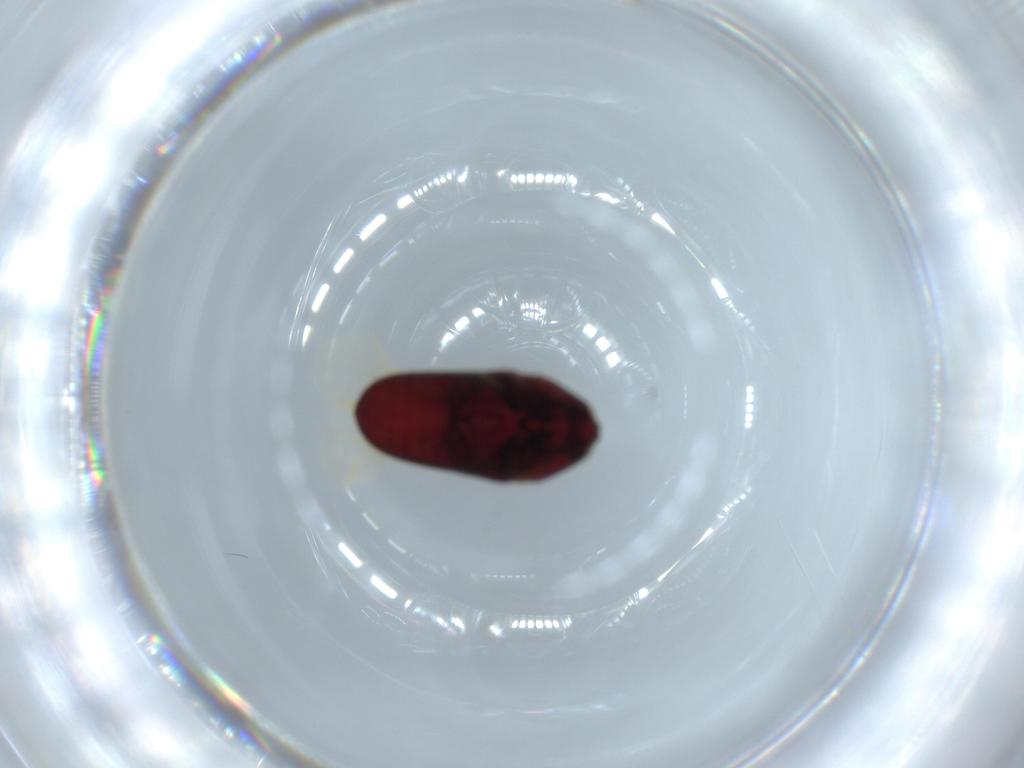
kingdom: Animalia
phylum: Arthropoda
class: Insecta
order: Coleoptera
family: Throscidae
